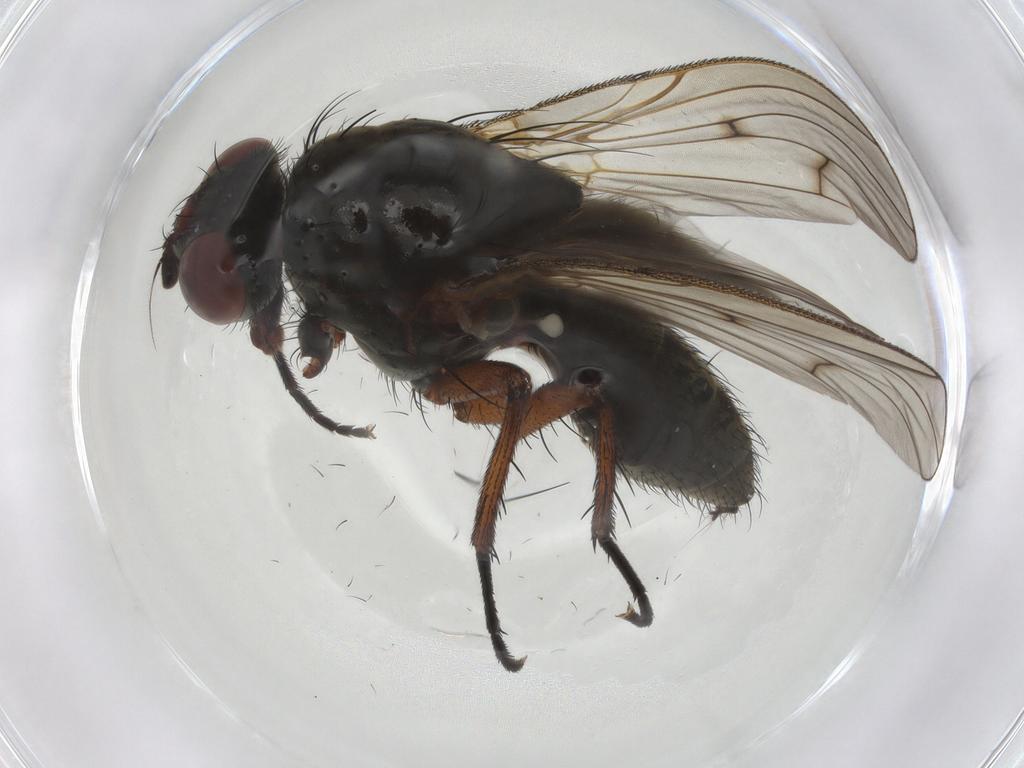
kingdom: Animalia
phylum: Arthropoda
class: Insecta
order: Diptera
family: Anthomyiidae
